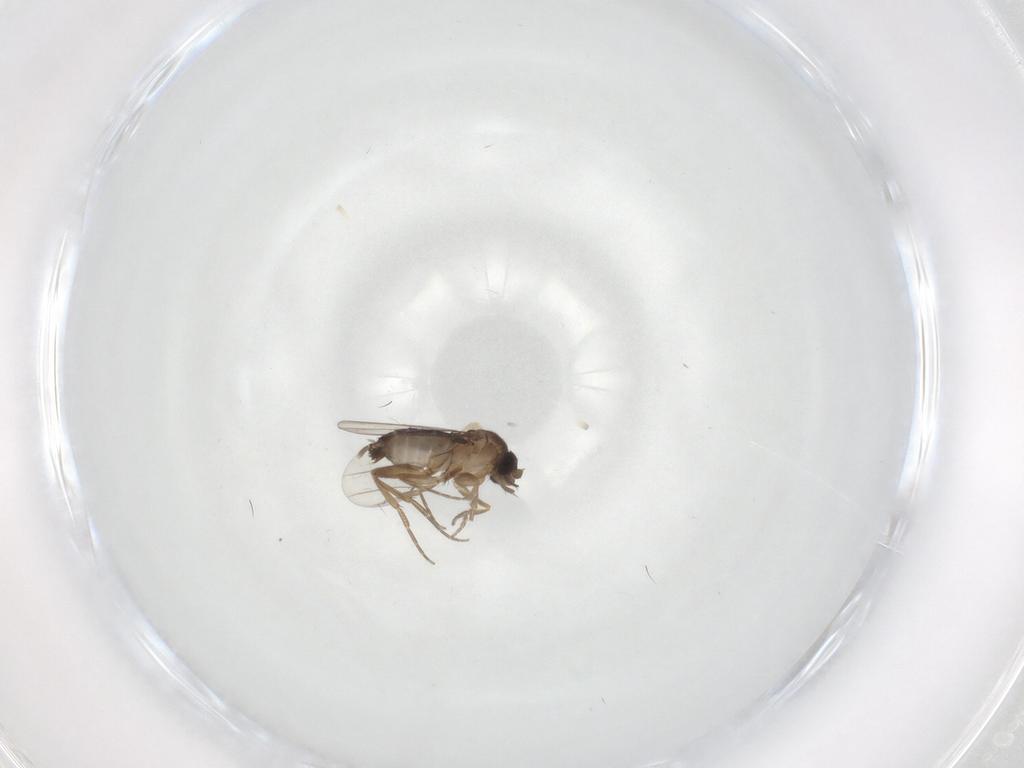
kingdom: Animalia
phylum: Arthropoda
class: Insecta
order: Diptera
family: Phoridae
